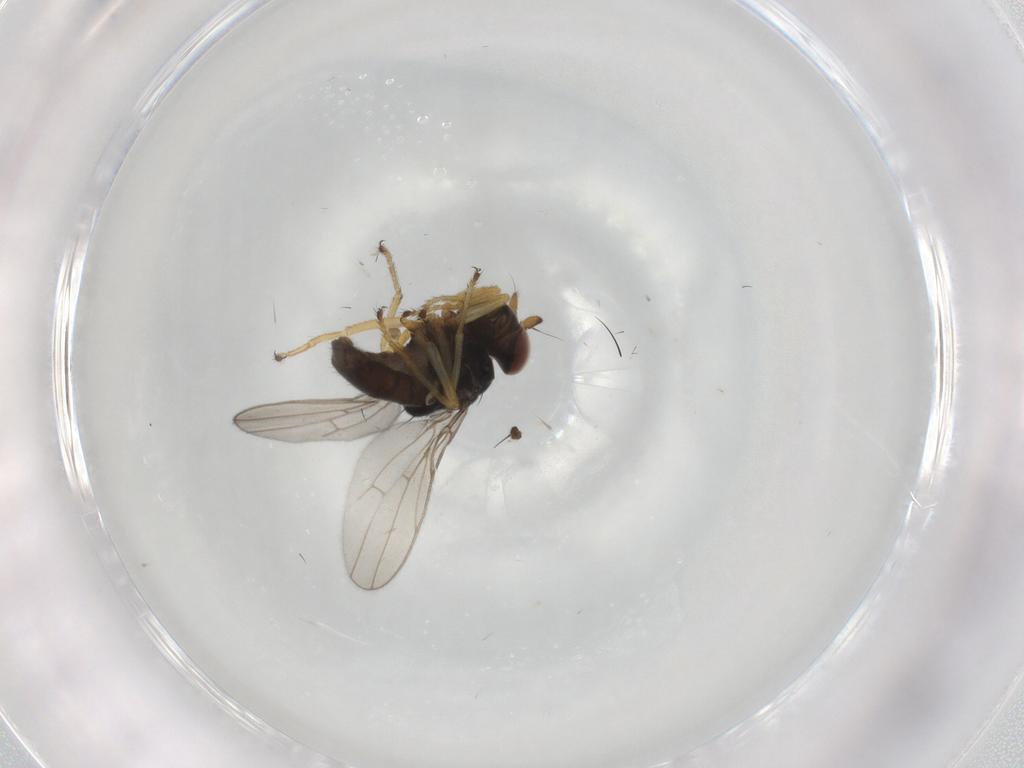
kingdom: Animalia
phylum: Arthropoda
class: Insecta
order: Diptera
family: Ephydridae
